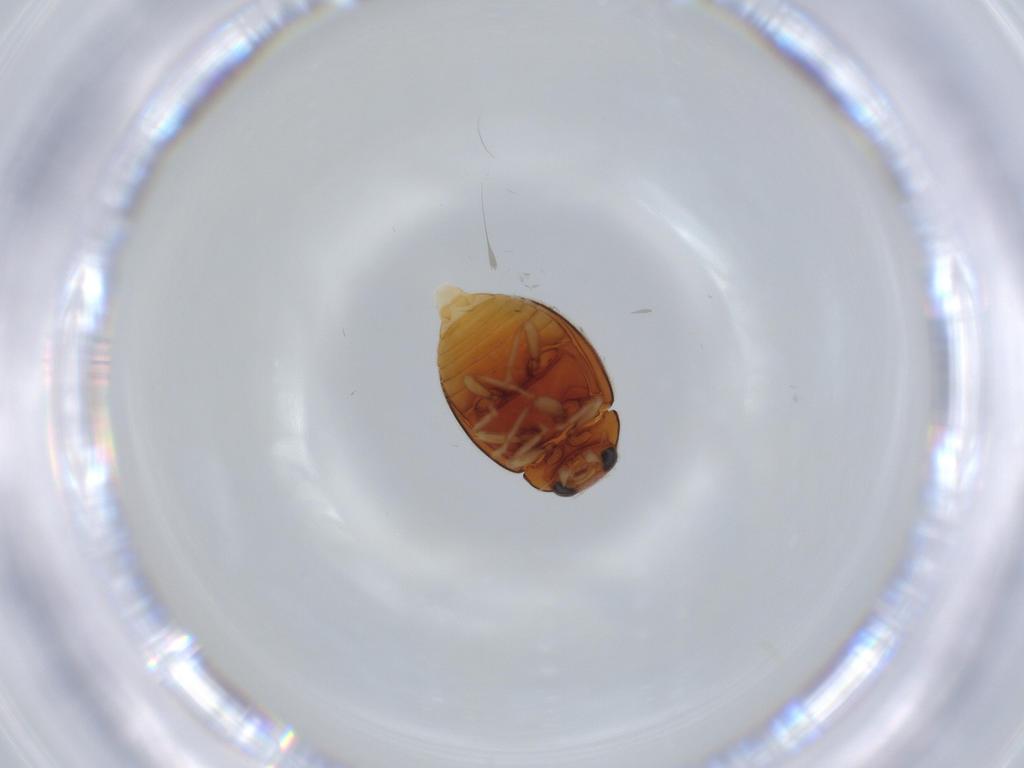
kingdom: Animalia
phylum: Arthropoda
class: Insecta
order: Coleoptera
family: Coccinellidae
